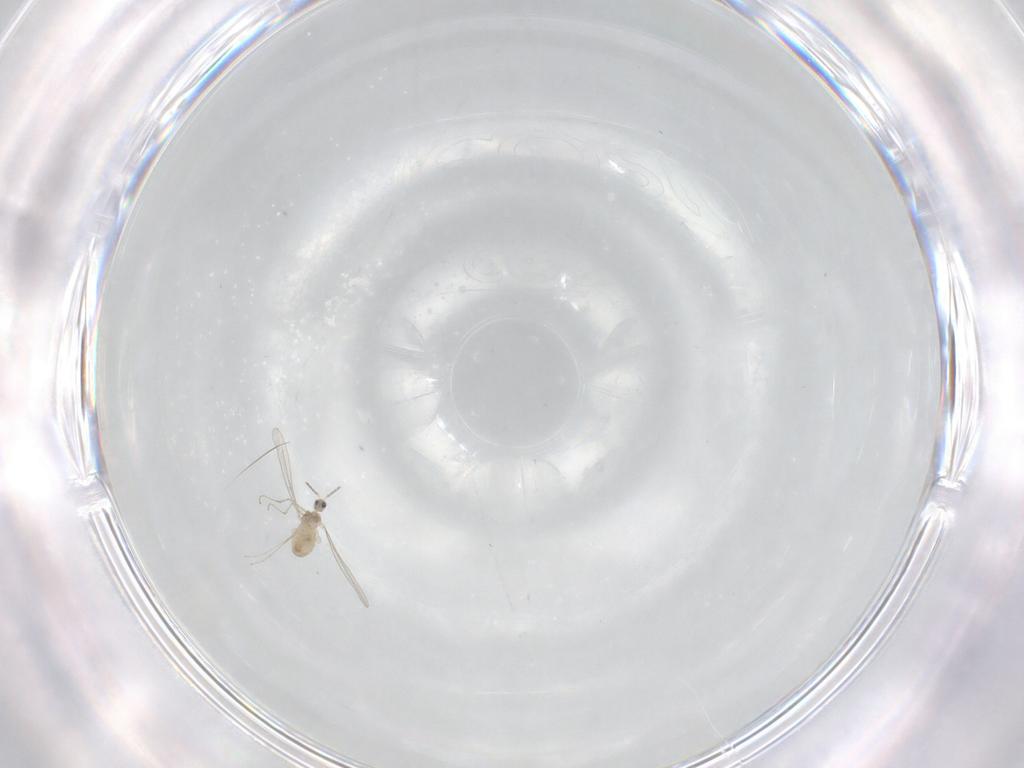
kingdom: Animalia
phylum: Arthropoda
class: Insecta
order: Diptera
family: Cecidomyiidae
